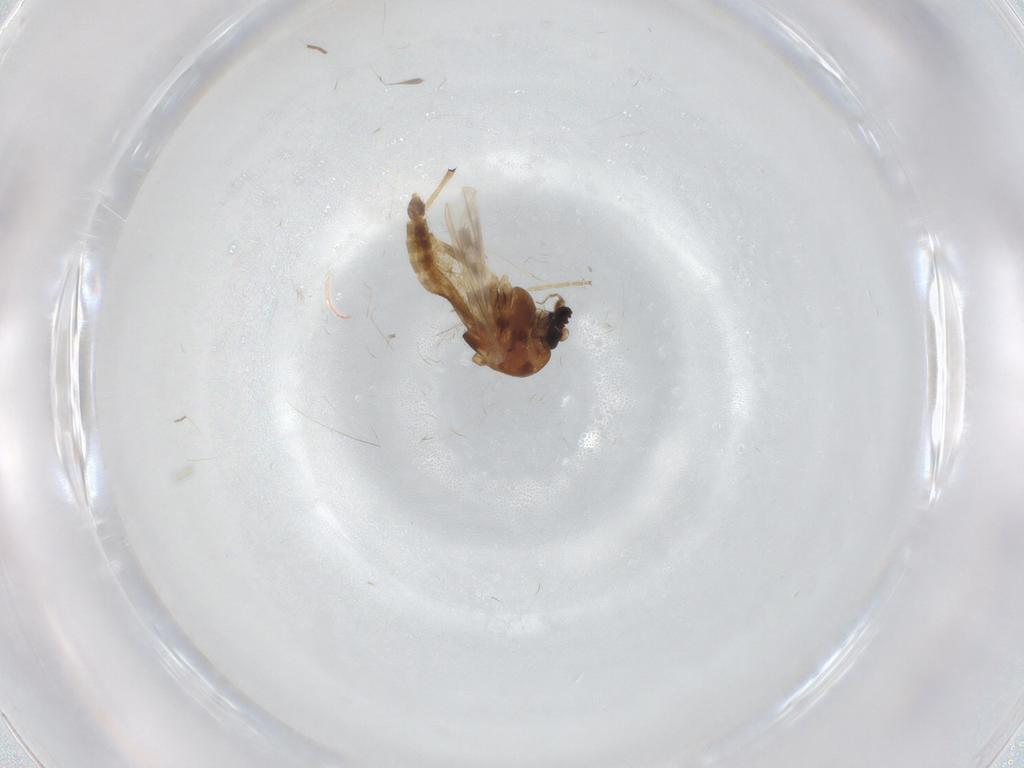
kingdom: Animalia
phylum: Arthropoda
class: Insecta
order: Diptera
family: Chironomidae
